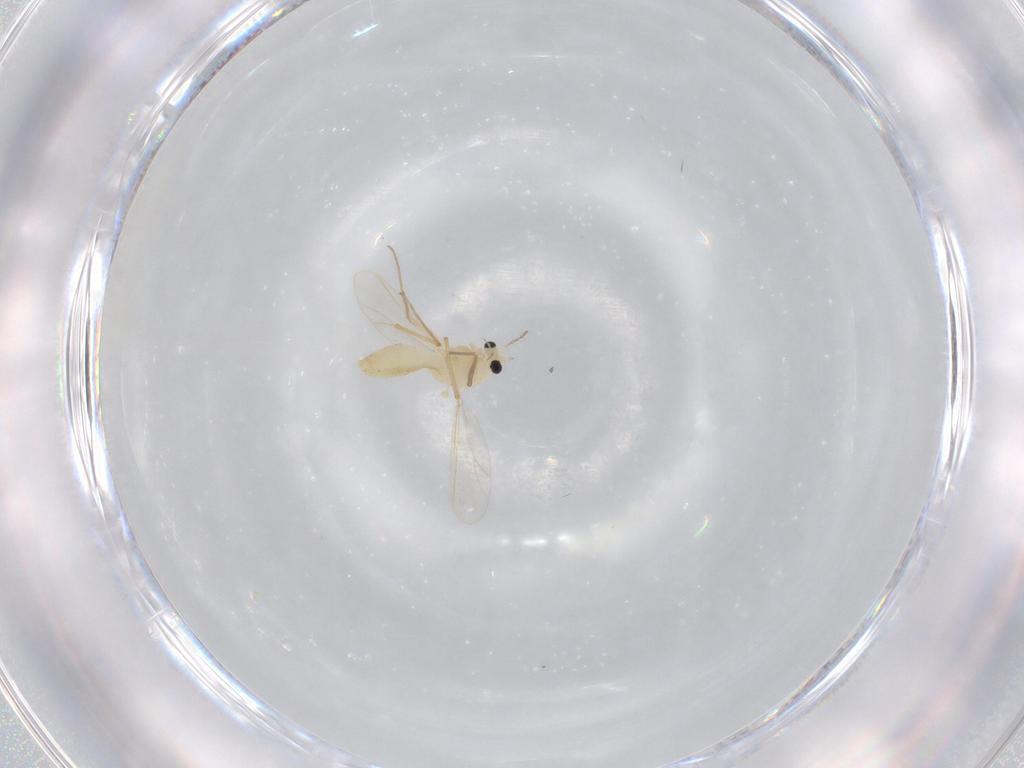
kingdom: Animalia
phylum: Arthropoda
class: Insecta
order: Diptera
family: Chironomidae
